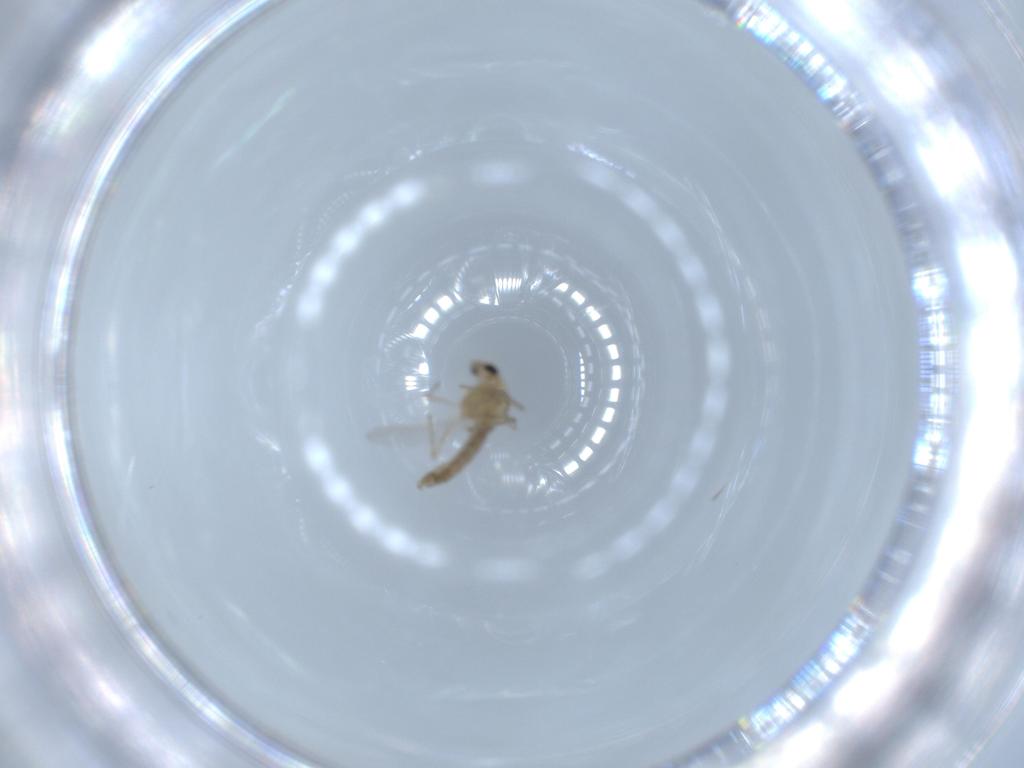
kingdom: Animalia
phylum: Arthropoda
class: Insecta
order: Diptera
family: Chironomidae
